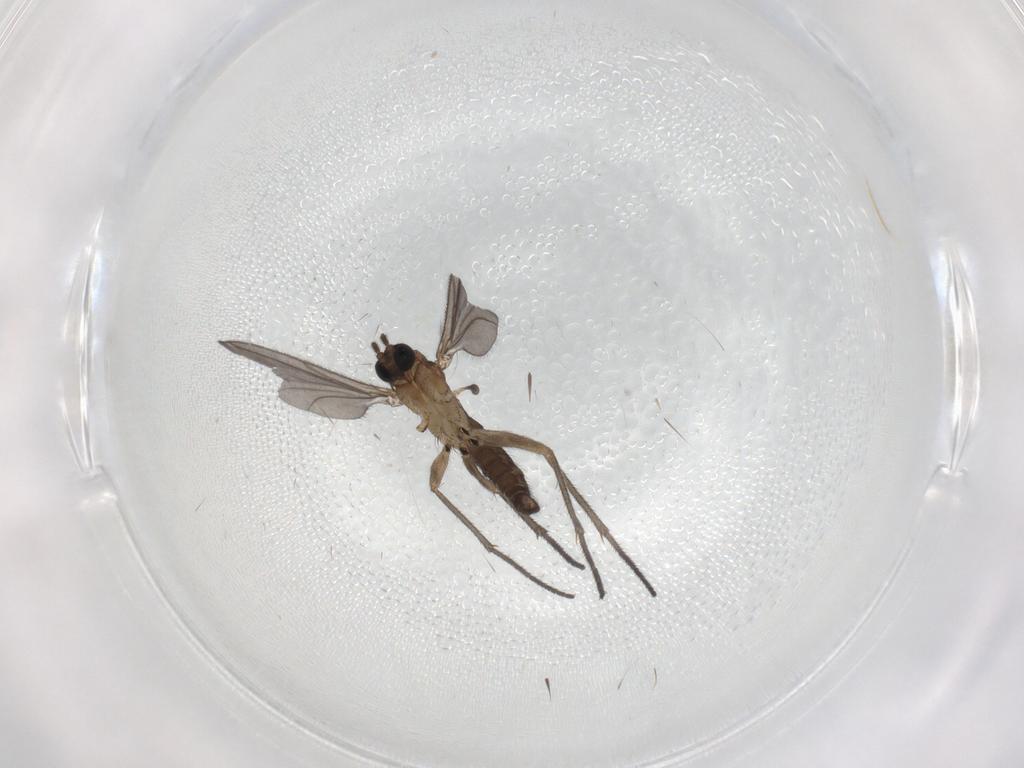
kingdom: Animalia
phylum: Arthropoda
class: Insecta
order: Diptera
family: Sciaridae
